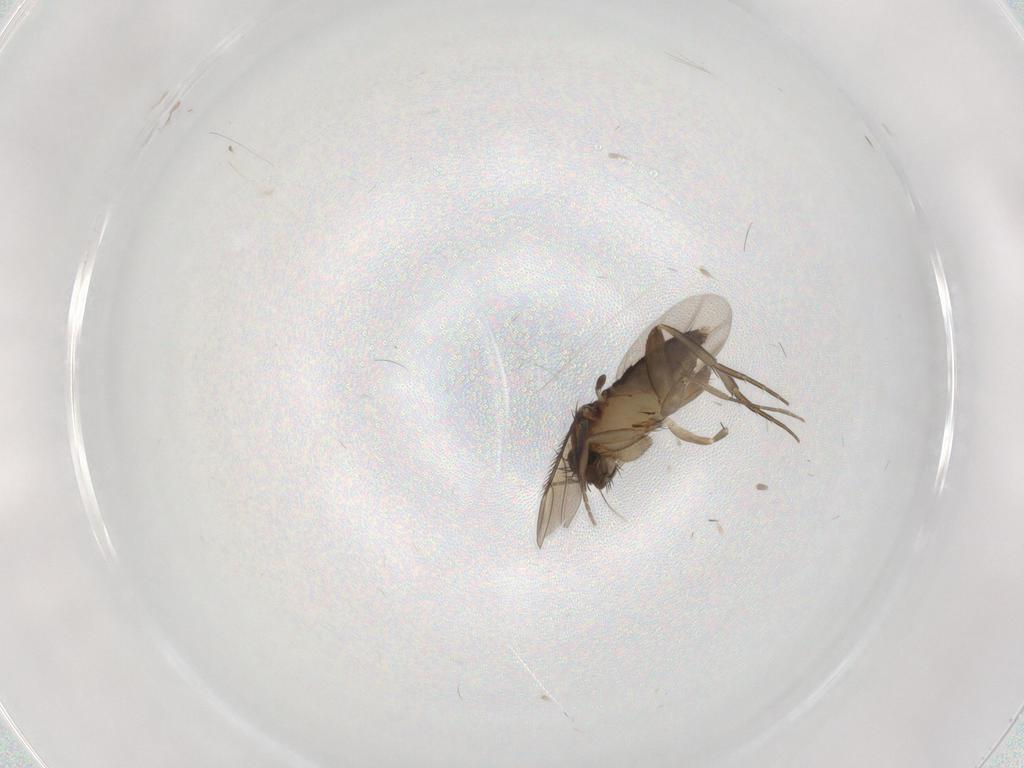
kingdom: Animalia
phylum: Arthropoda
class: Insecta
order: Diptera
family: Phoridae
